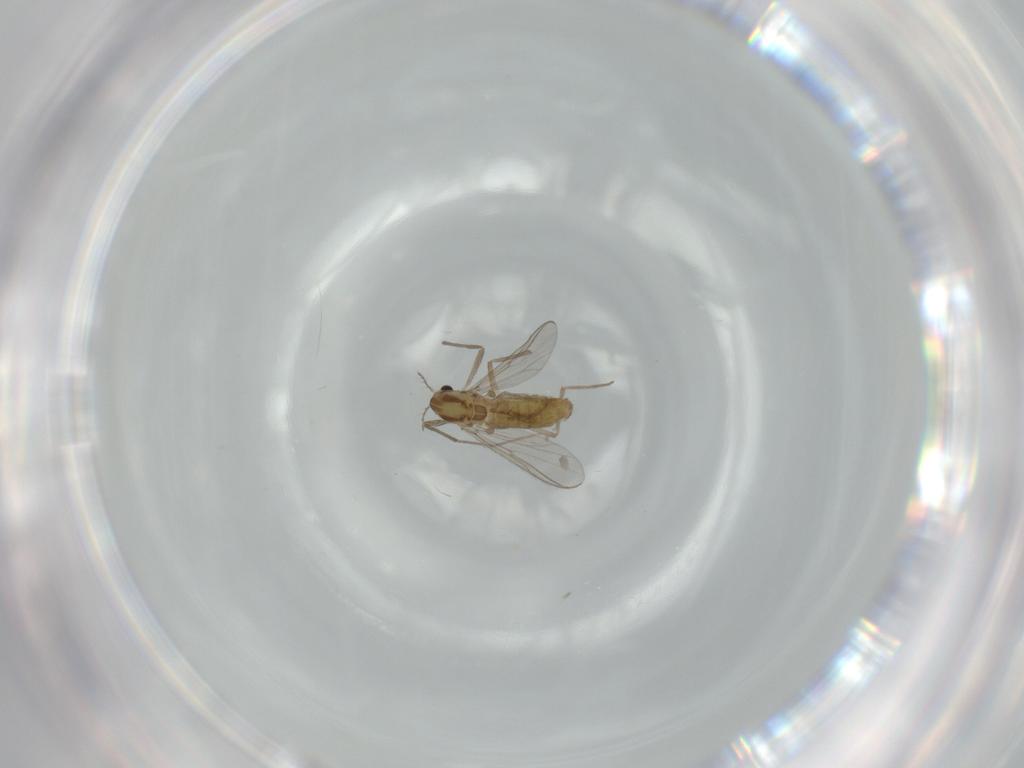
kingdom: Animalia
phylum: Arthropoda
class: Insecta
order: Diptera
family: Chironomidae
